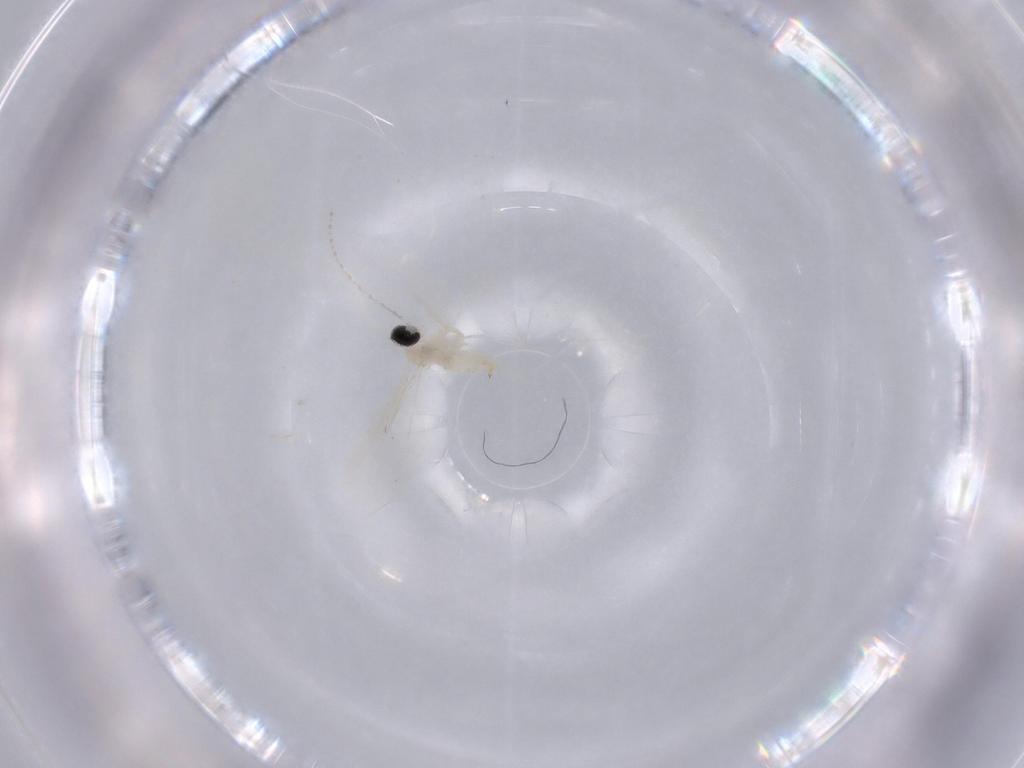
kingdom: Animalia
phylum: Arthropoda
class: Insecta
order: Diptera
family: Cecidomyiidae
